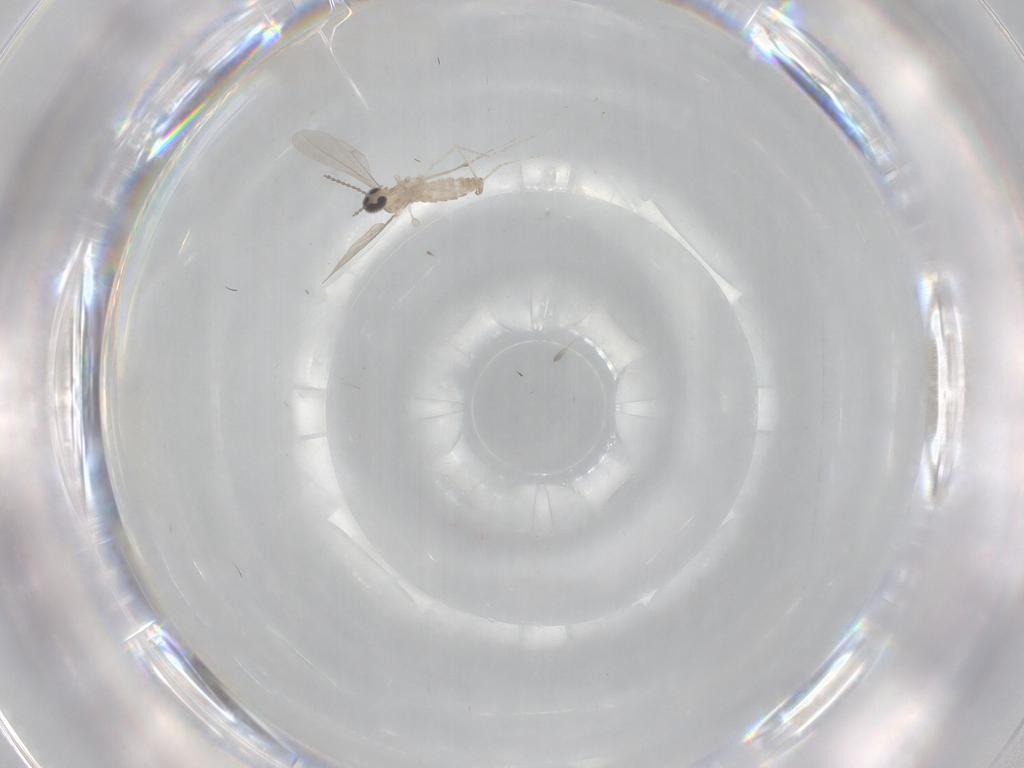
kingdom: Animalia
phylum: Arthropoda
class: Insecta
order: Diptera
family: Cecidomyiidae
